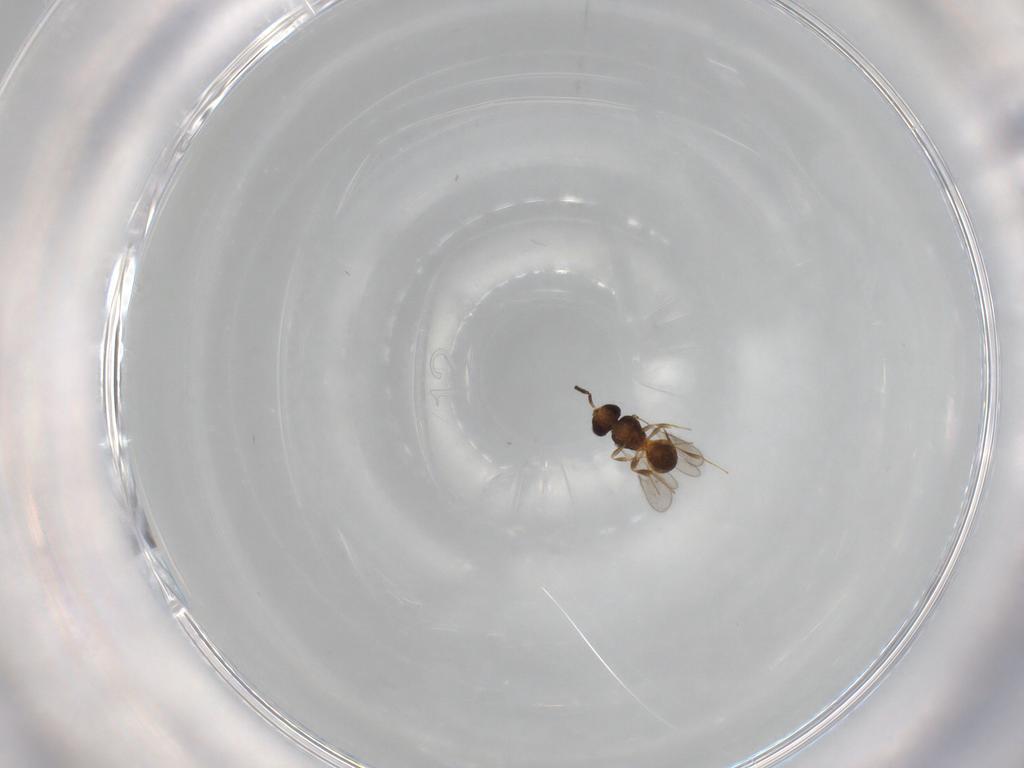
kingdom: Animalia
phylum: Arthropoda
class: Insecta
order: Hymenoptera
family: Scelionidae
